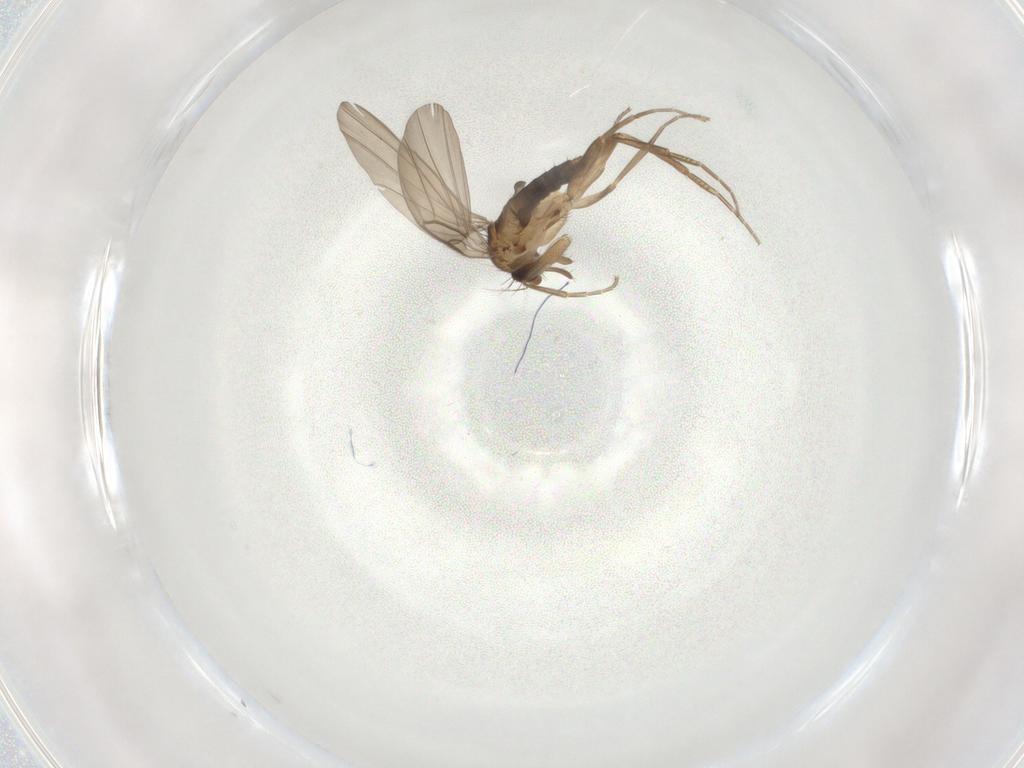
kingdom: Animalia
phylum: Arthropoda
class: Insecta
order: Diptera
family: Phoridae
